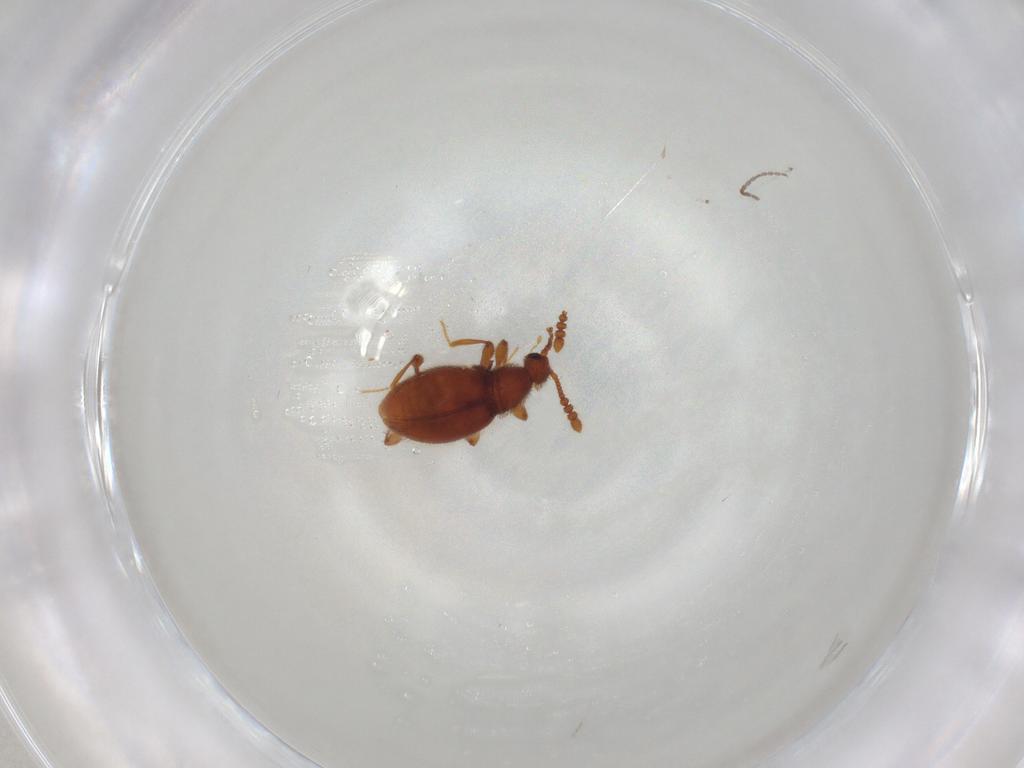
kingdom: Animalia
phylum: Arthropoda
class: Insecta
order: Coleoptera
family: Staphylinidae
